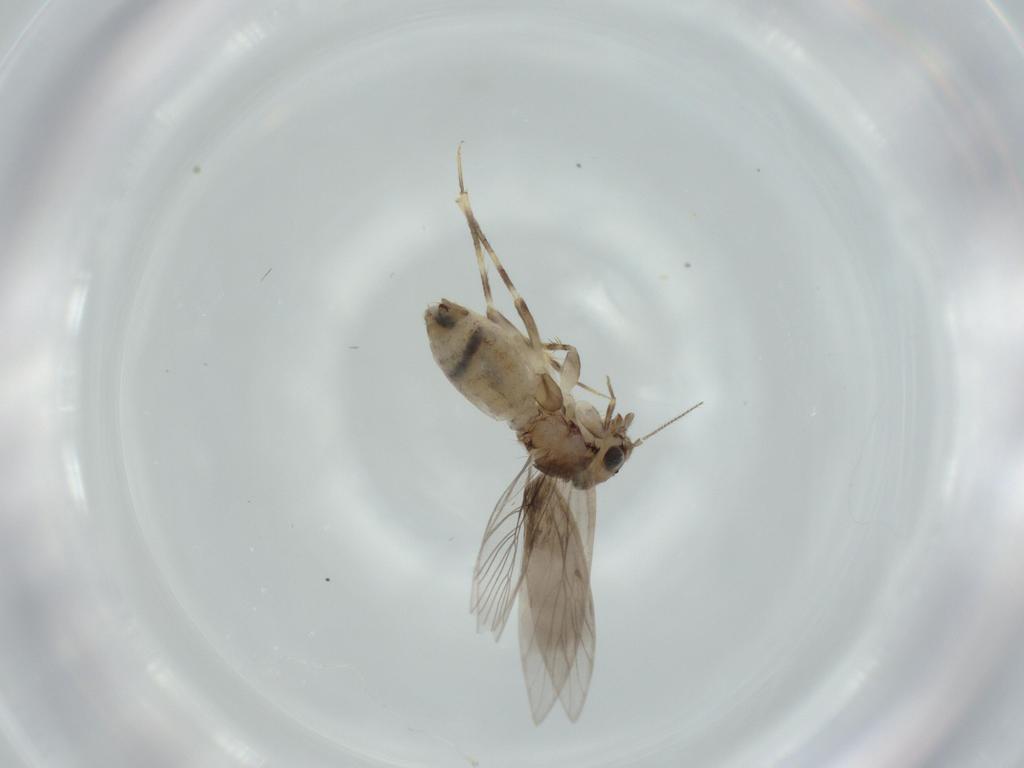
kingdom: Animalia
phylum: Arthropoda
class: Insecta
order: Psocodea
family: Lepidopsocidae
